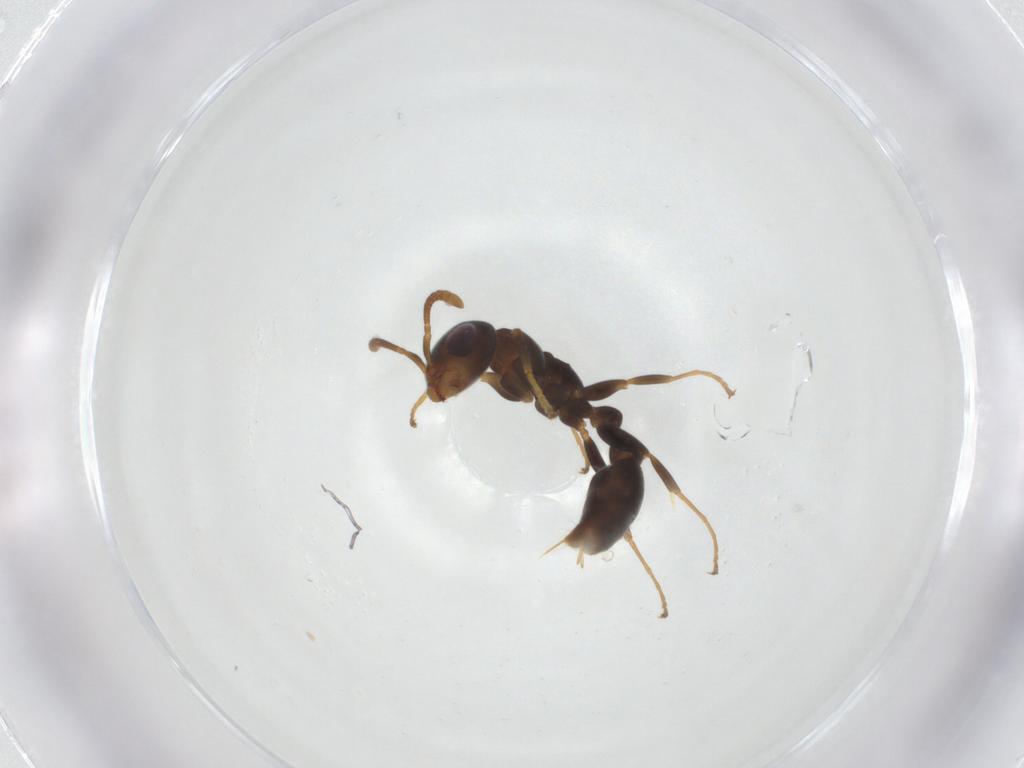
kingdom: Animalia
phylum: Arthropoda
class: Insecta
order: Hymenoptera
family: Formicidae
